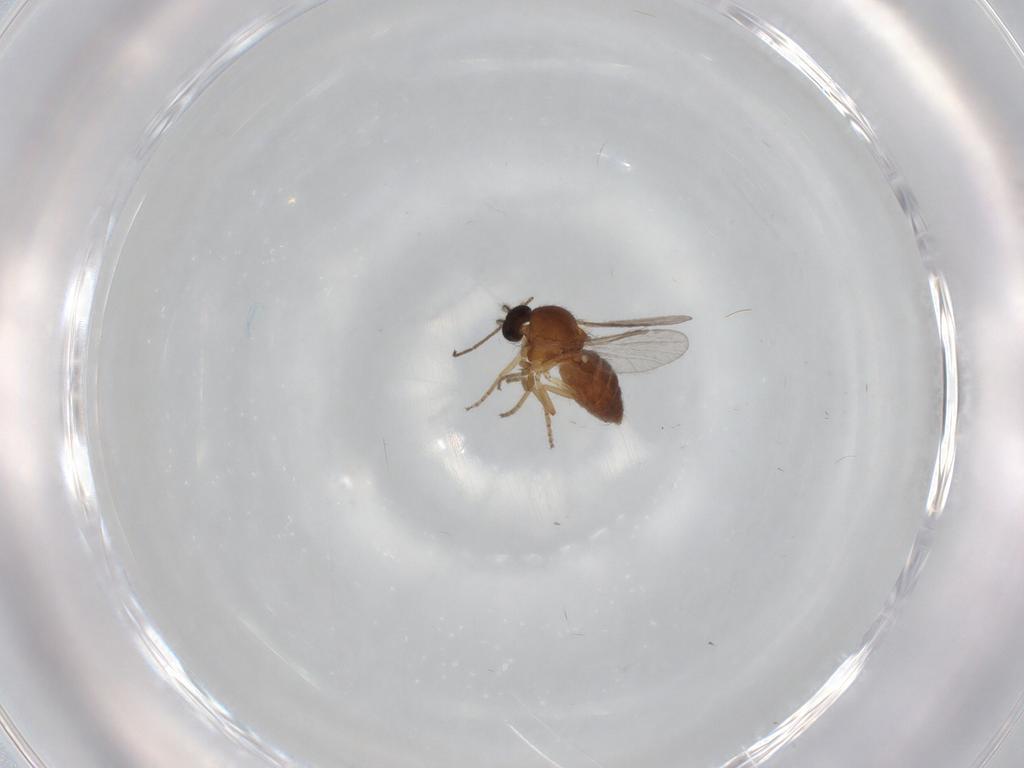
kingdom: Animalia
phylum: Arthropoda
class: Insecta
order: Diptera
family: Ceratopogonidae
